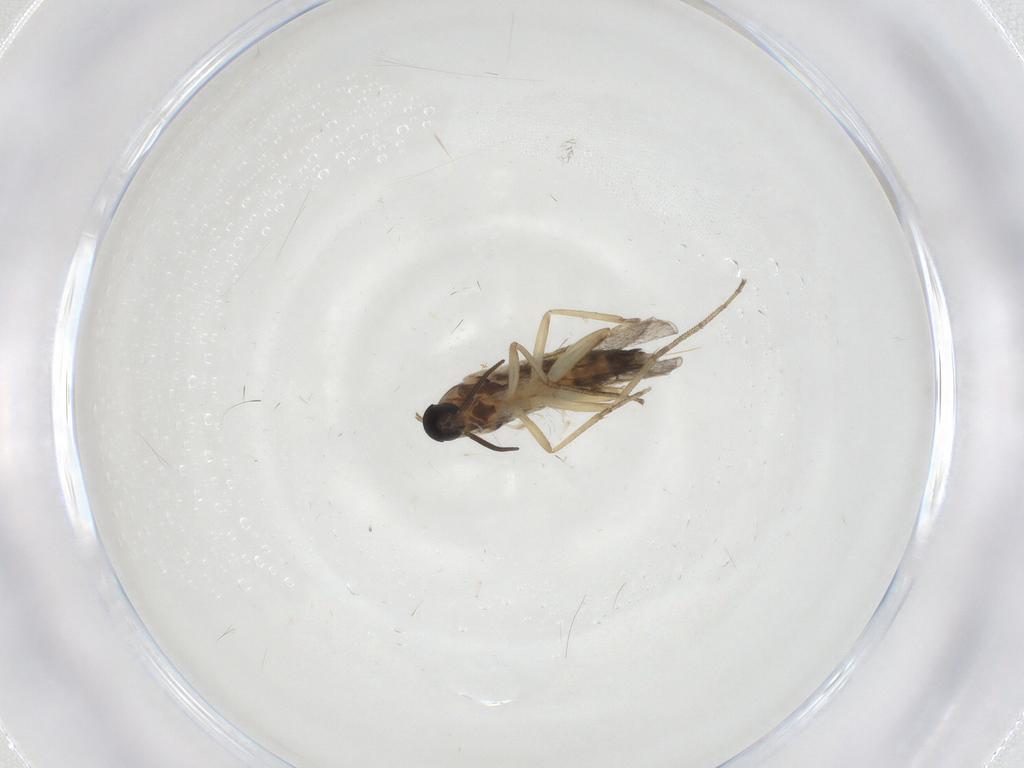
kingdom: Animalia
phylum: Arthropoda
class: Insecta
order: Diptera
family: Cecidomyiidae
